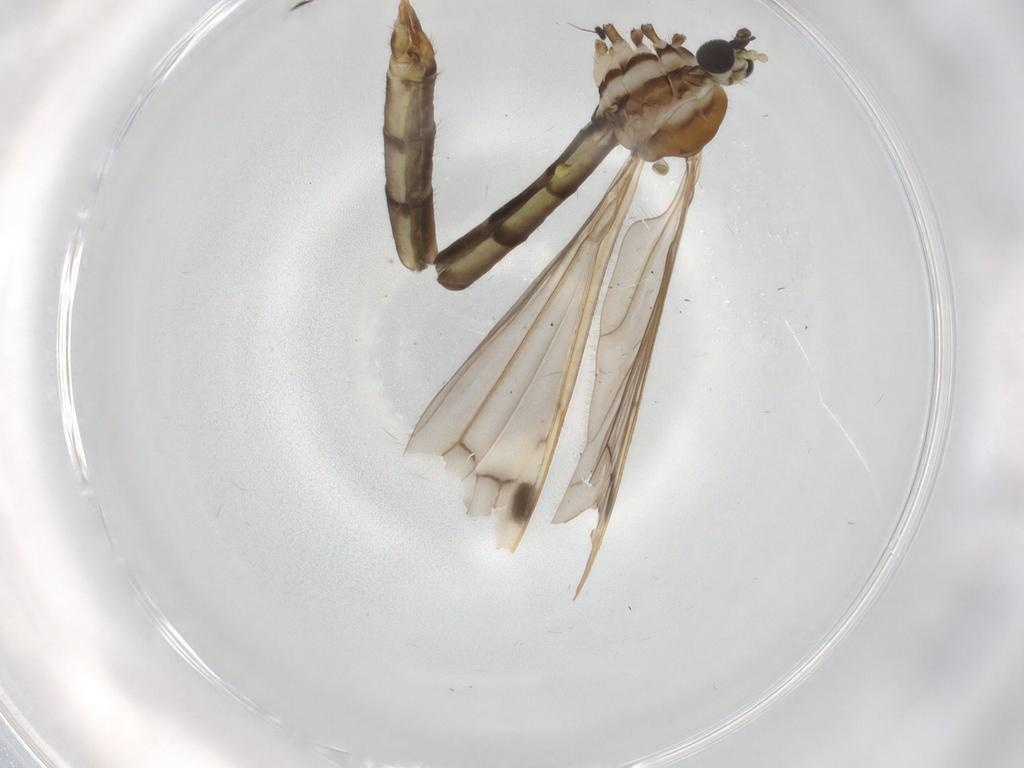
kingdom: Animalia
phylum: Arthropoda
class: Insecta
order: Diptera
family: Limoniidae
